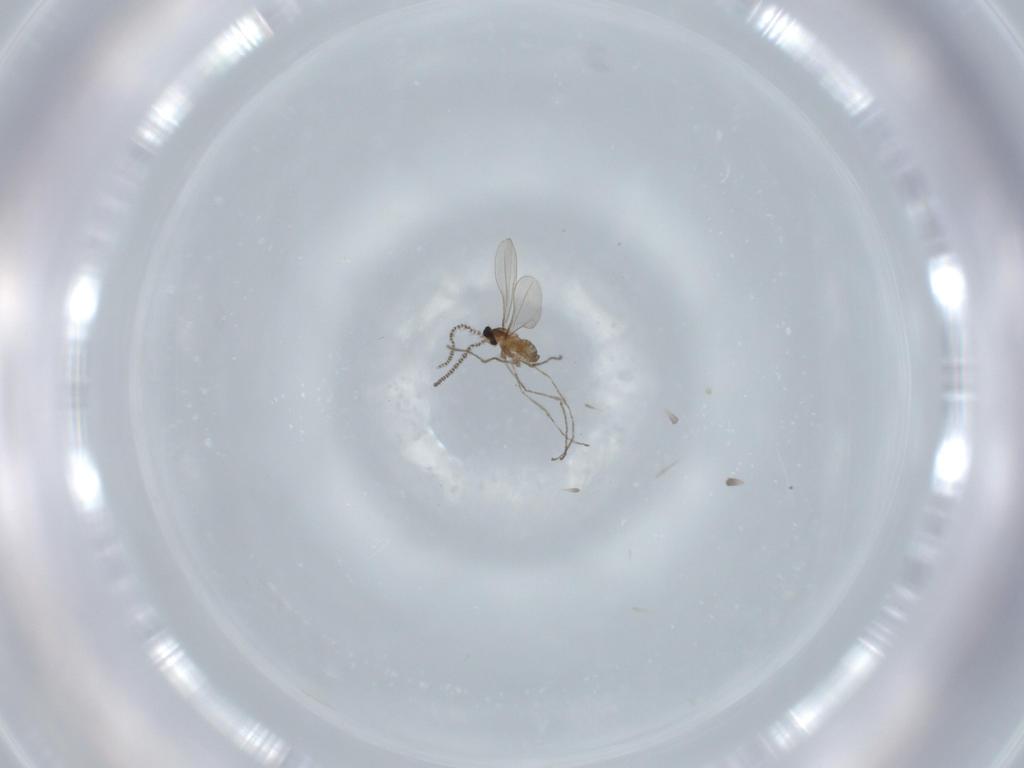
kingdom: Animalia
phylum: Arthropoda
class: Insecta
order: Diptera
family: Cecidomyiidae
